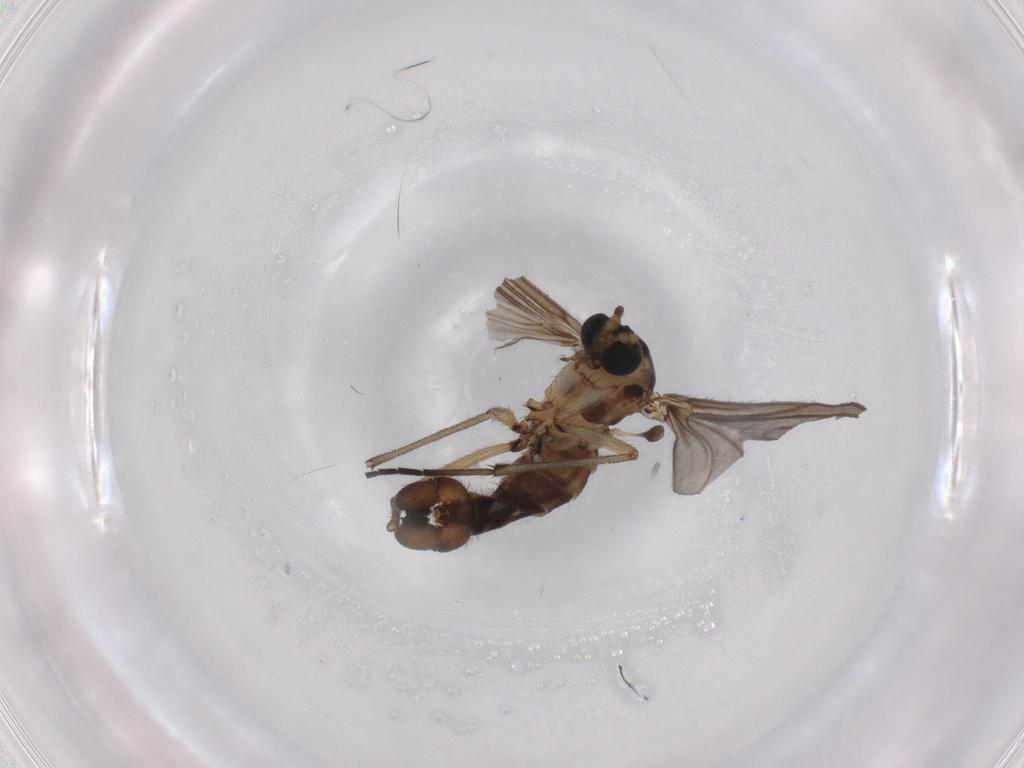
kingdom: Animalia
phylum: Arthropoda
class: Insecta
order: Diptera
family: Sciaridae
